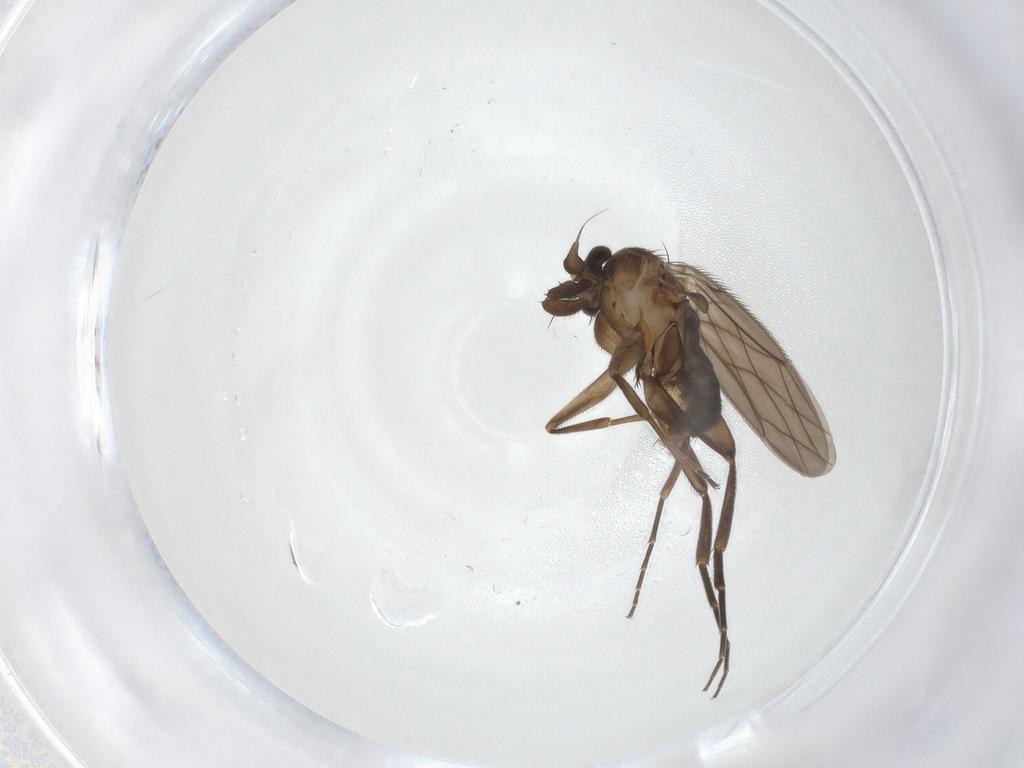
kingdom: Animalia
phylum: Arthropoda
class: Insecta
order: Diptera
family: Phoridae
